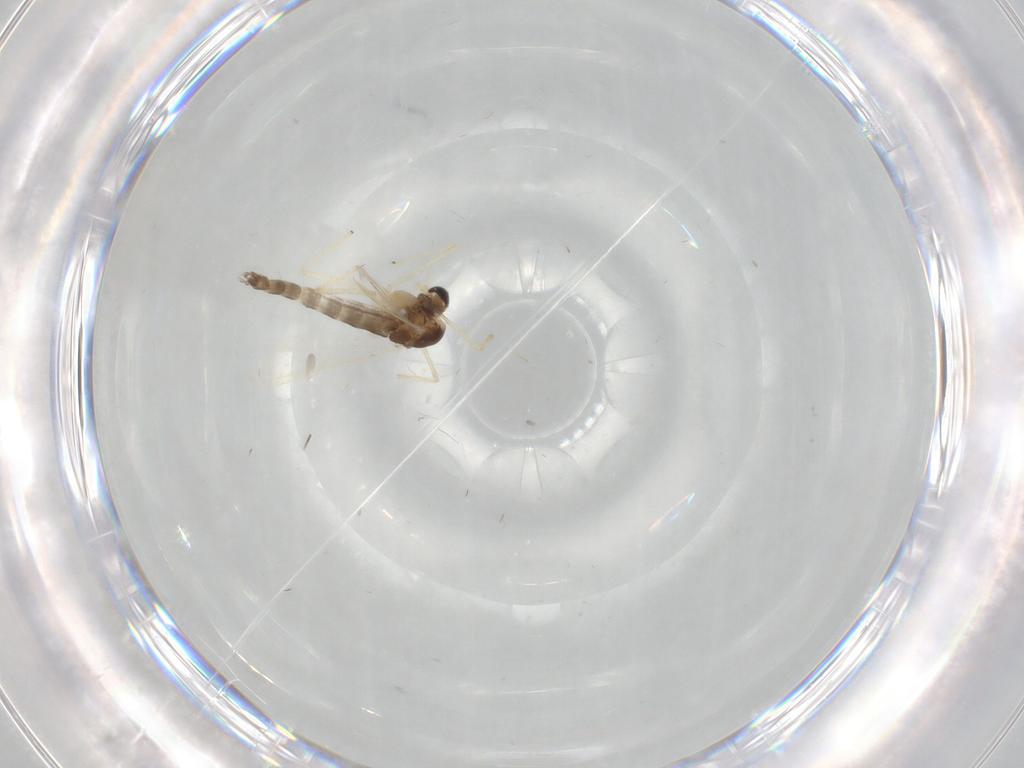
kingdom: Animalia
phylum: Arthropoda
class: Insecta
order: Diptera
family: Chironomidae
